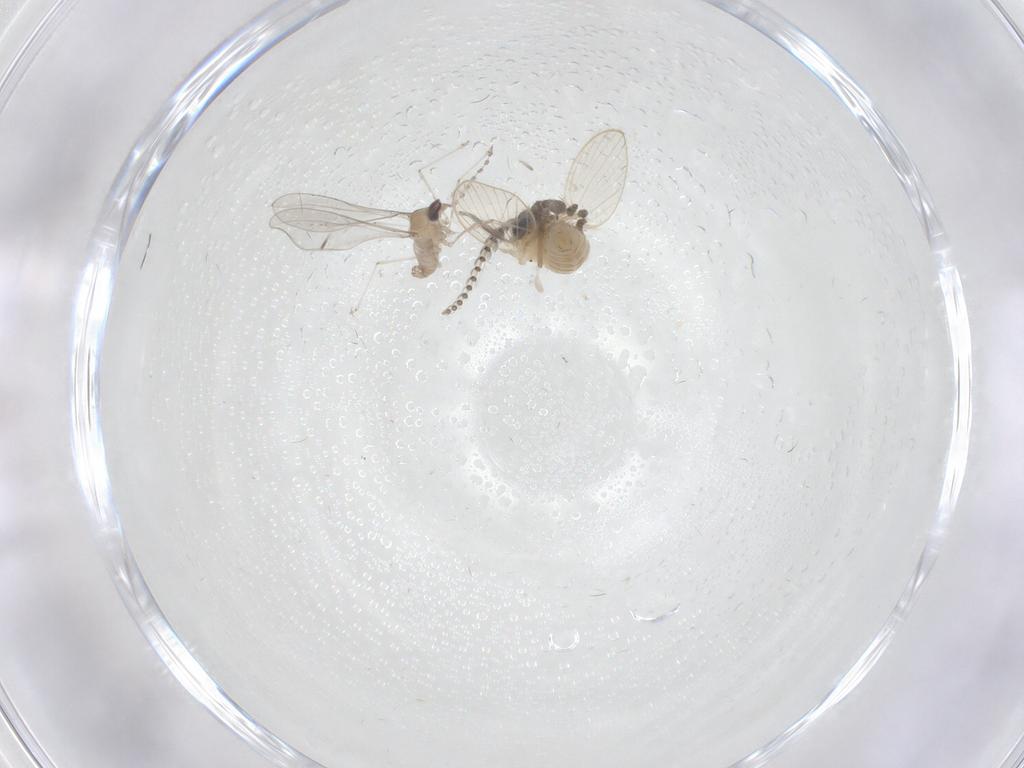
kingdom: Animalia
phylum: Arthropoda
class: Insecta
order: Diptera
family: Cecidomyiidae
